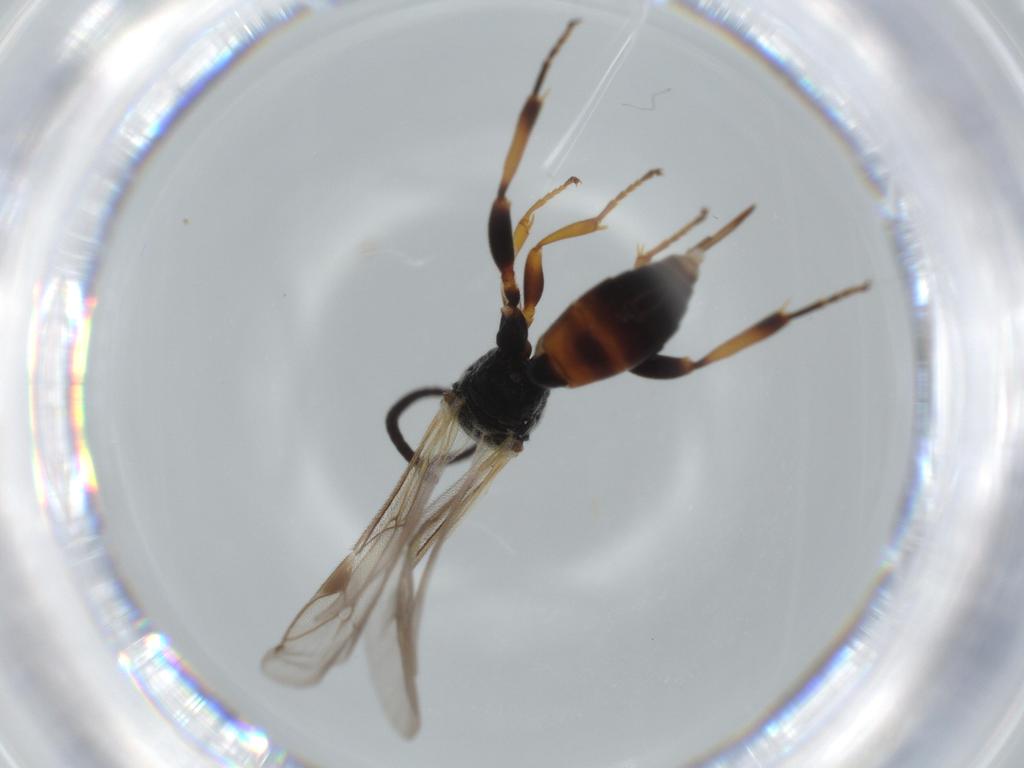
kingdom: Animalia
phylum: Arthropoda
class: Insecta
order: Hymenoptera
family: Ichneumonidae
